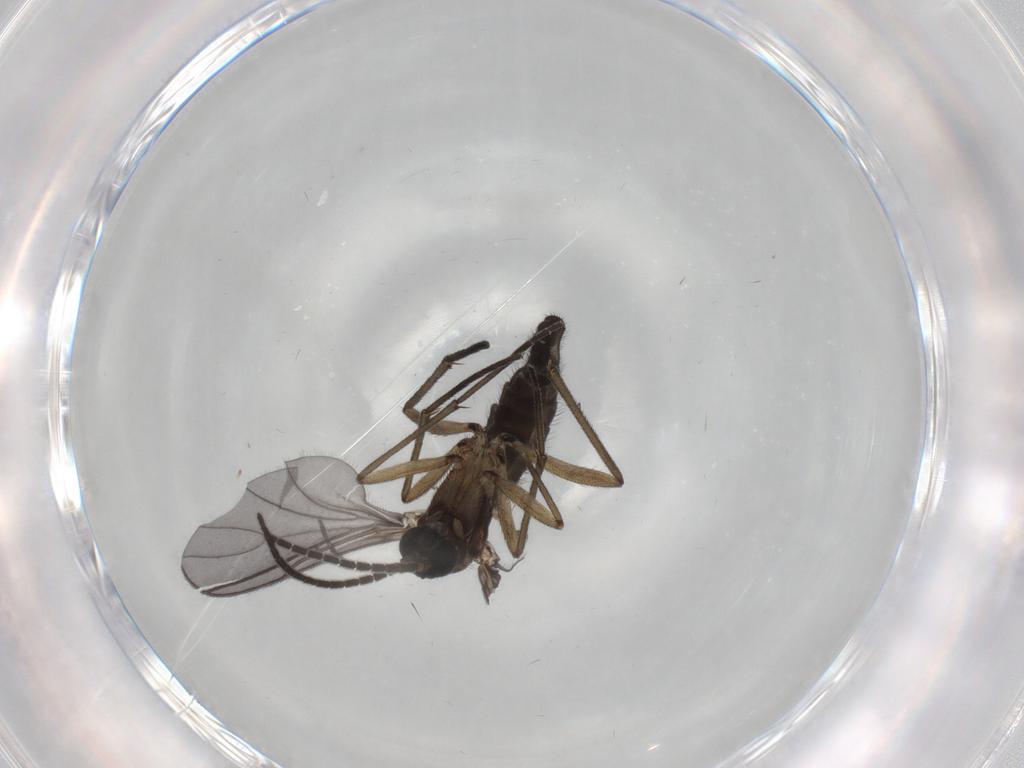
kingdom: Animalia
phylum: Arthropoda
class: Insecta
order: Diptera
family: Sciaridae
